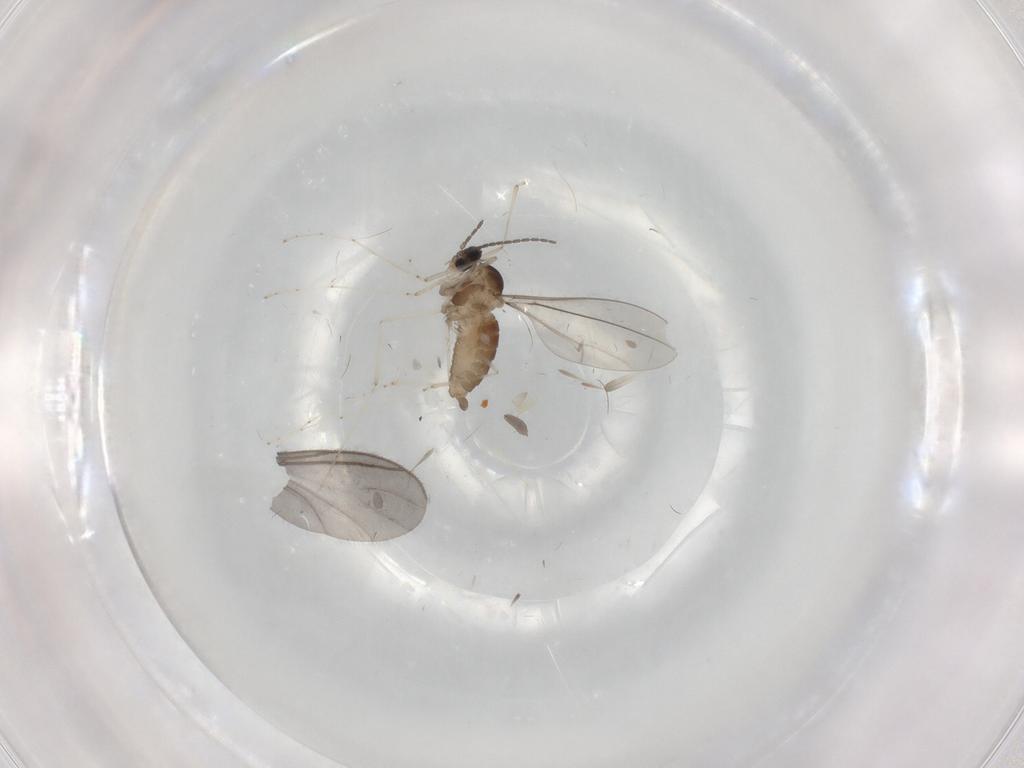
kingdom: Animalia
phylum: Arthropoda
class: Insecta
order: Diptera
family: Cecidomyiidae
